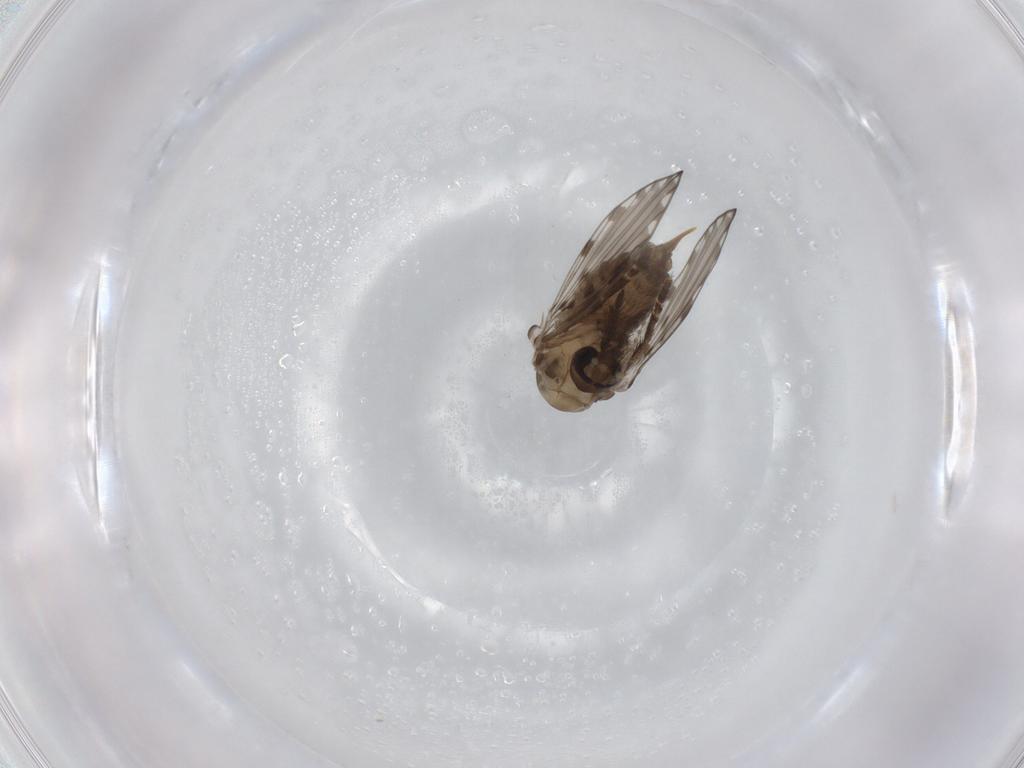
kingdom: Animalia
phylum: Arthropoda
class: Insecta
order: Diptera
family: Psychodidae
